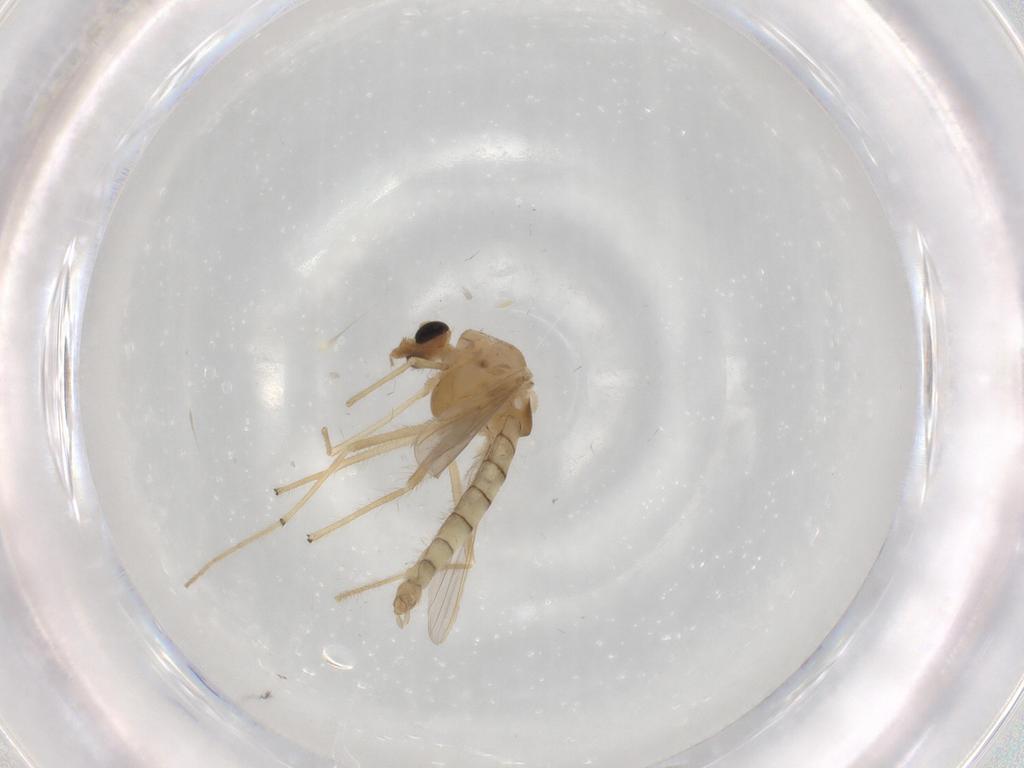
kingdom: Animalia
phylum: Arthropoda
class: Insecta
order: Diptera
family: Chironomidae
